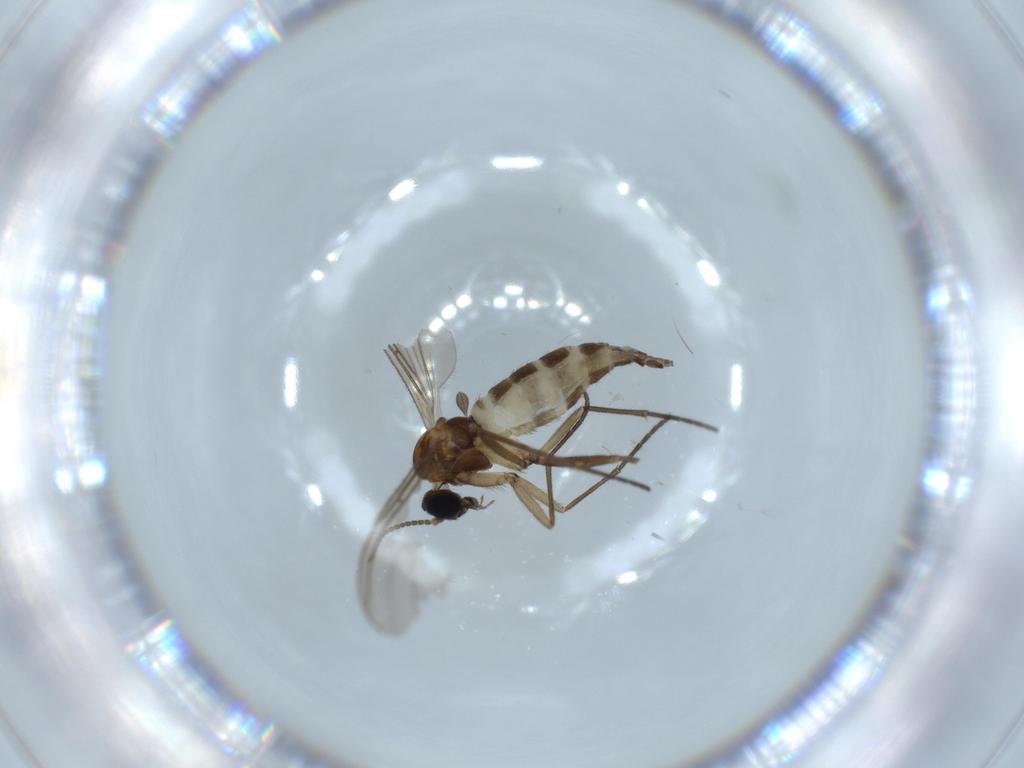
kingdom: Animalia
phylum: Arthropoda
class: Insecta
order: Diptera
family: Sciaridae
